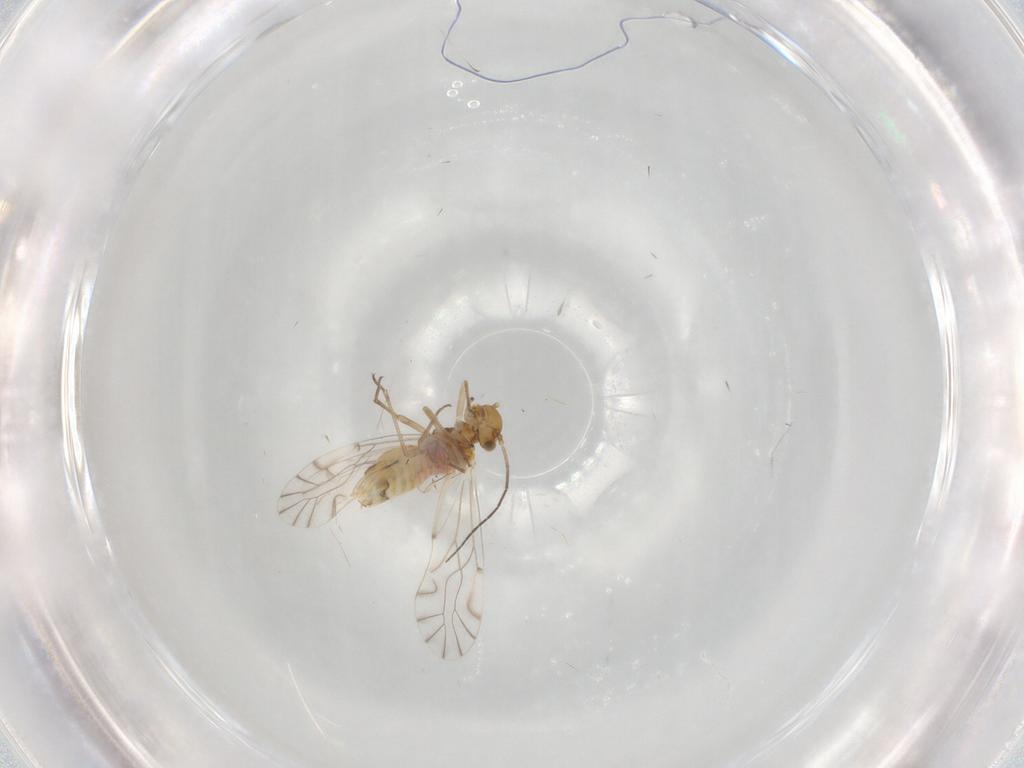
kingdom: Animalia
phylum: Arthropoda
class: Insecta
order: Psocodea
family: Lachesillidae
